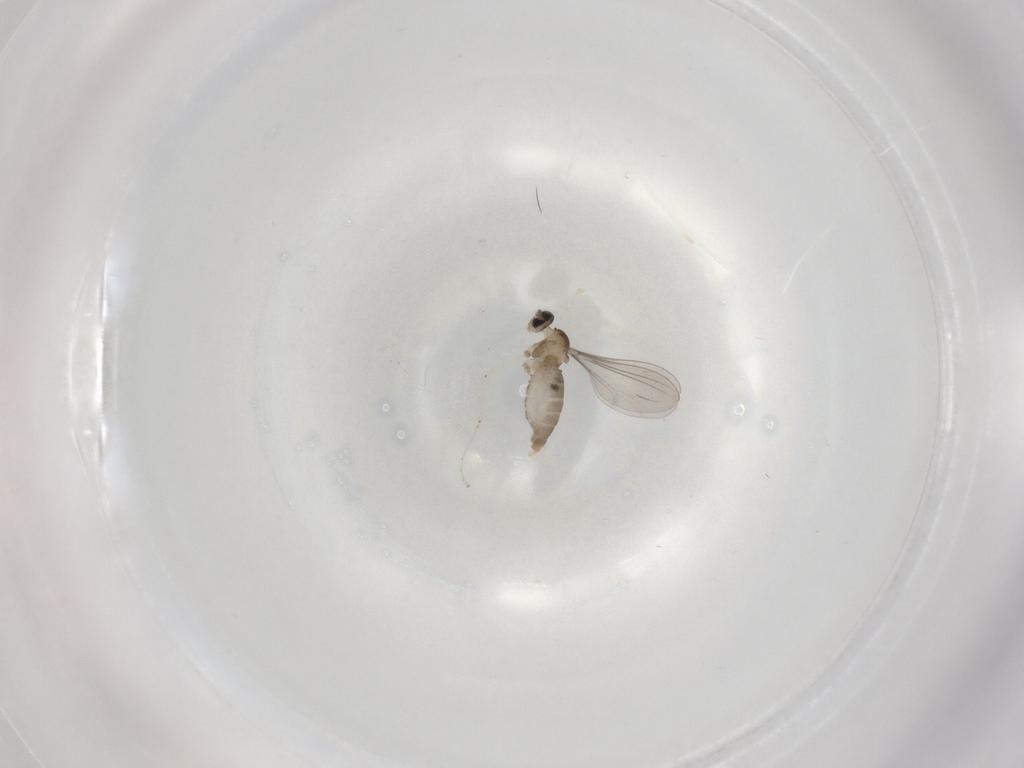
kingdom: Animalia
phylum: Arthropoda
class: Insecta
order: Diptera
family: Cecidomyiidae
